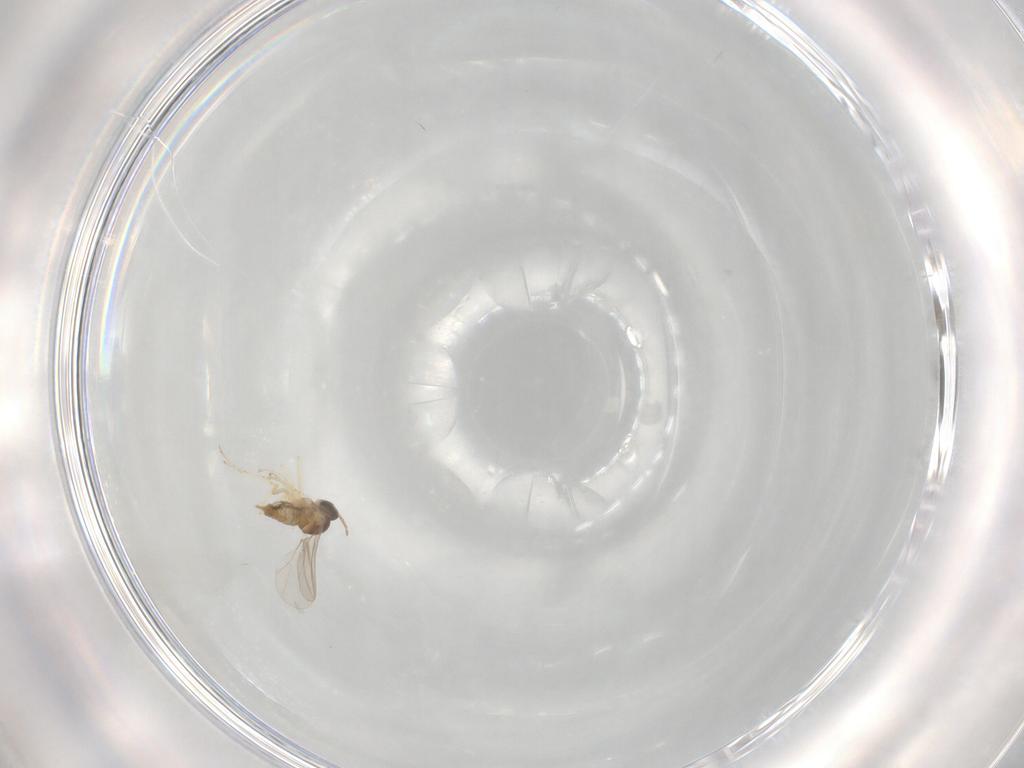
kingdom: Animalia
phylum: Arthropoda
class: Insecta
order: Diptera
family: Cecidomyiidae
